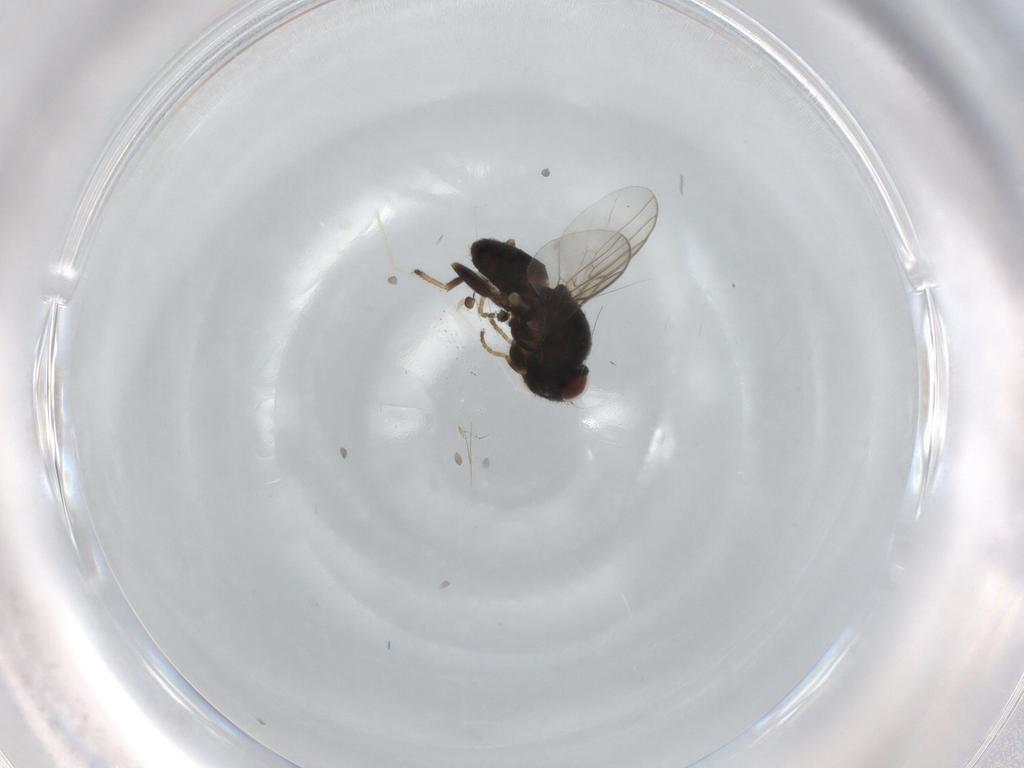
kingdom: Animalia
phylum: Arthropoda
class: Insecta
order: Diptera
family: Chloropidae
